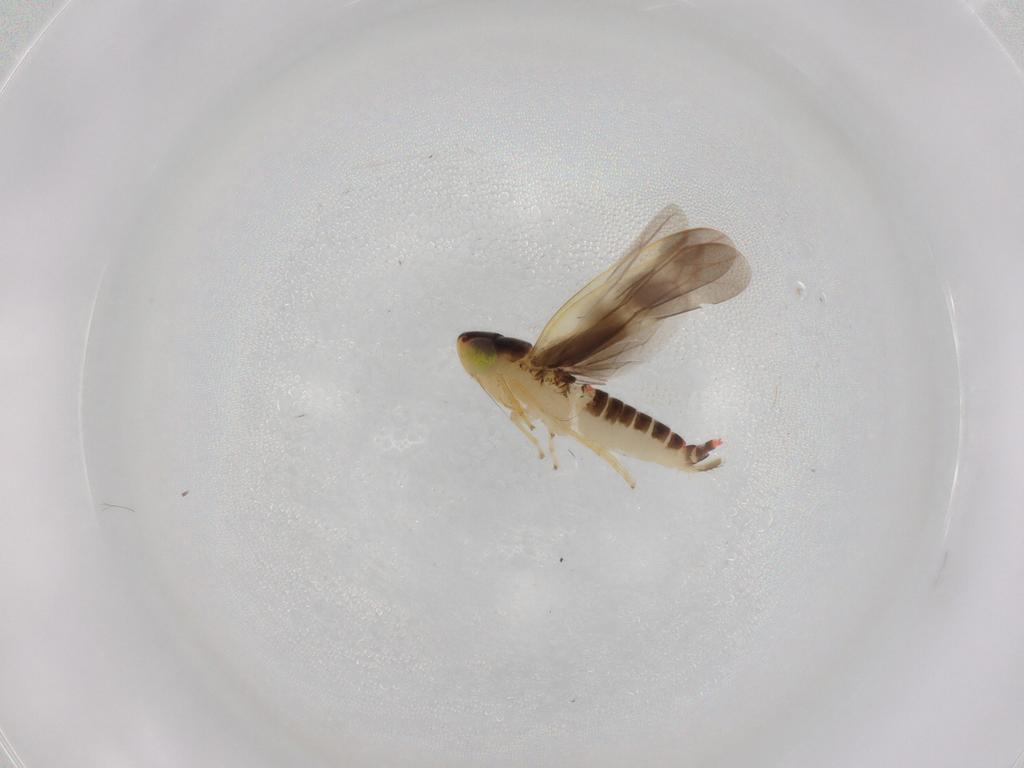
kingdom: Animalia
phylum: Arthropoda
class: Insecta
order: Hemiptera
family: Cicadellidae
